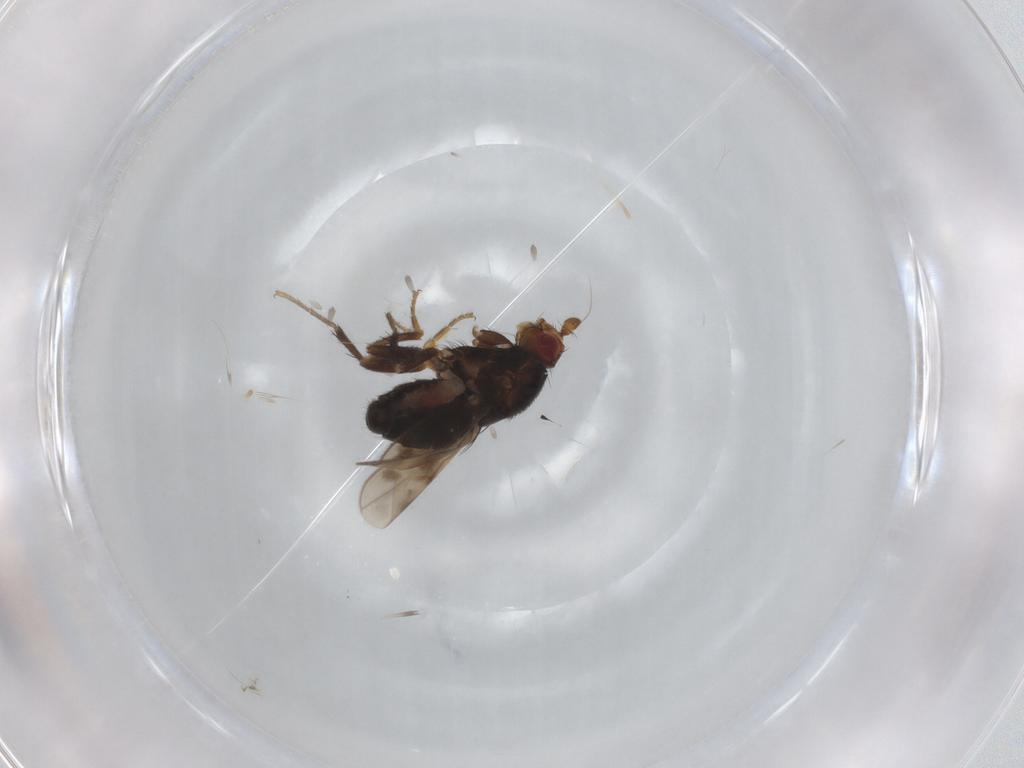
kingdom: Animalia
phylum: Arthropoda
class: Insecta
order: Diptera
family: Sphaeroceridae
